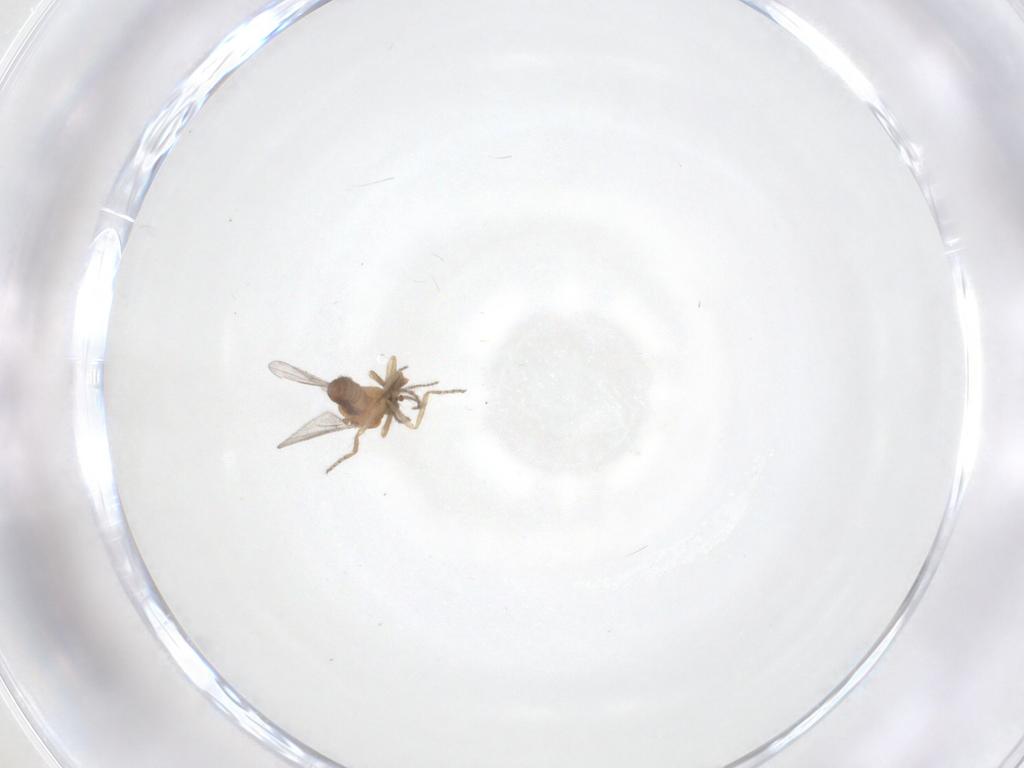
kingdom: Animalia
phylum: Arthropoda
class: Insecta
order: Diptera
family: Ceratopogonidae
